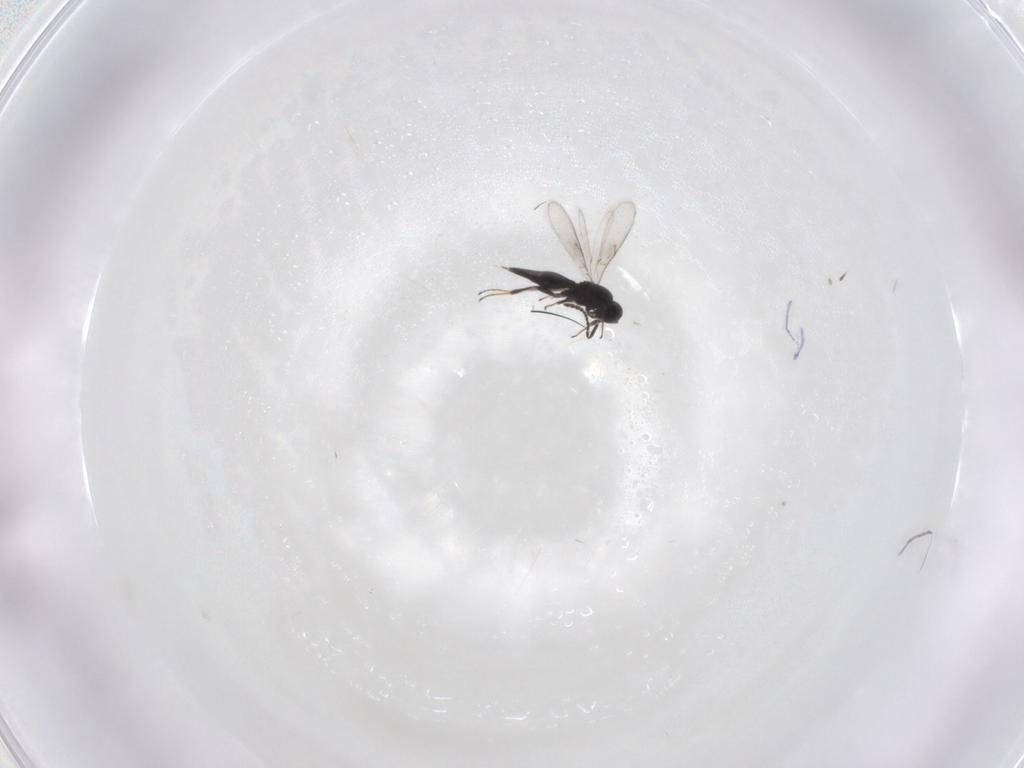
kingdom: Animalia
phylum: Arthropoda
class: Insecta
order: Hymenoptera
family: Scelionidae
